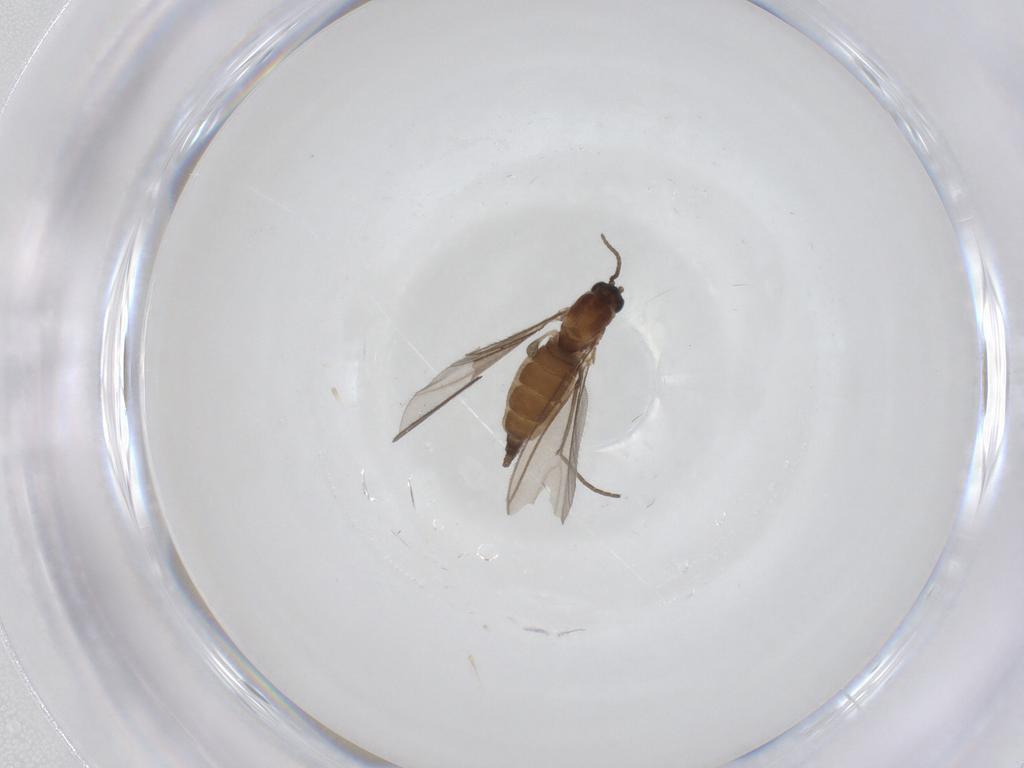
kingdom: Animalia
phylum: Arthropoda
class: Insecta
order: Diptera
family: Sciaridae
